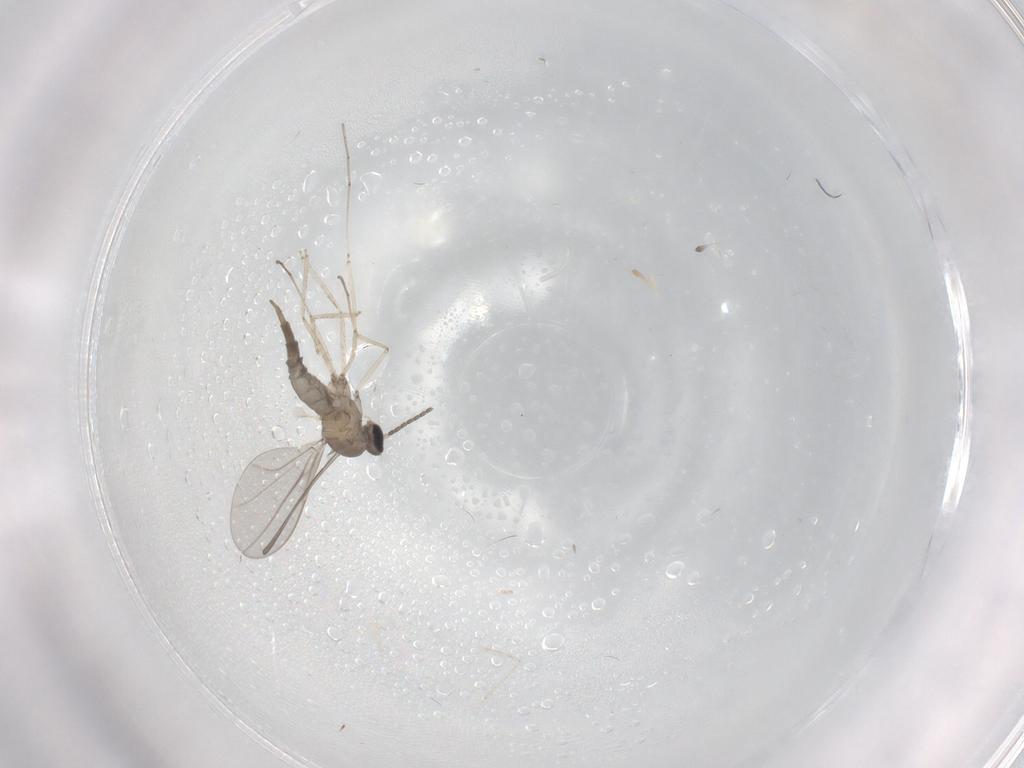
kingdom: Animalia
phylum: Arthropoda
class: Insecta
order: Diptera
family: Cecidomyiidae
